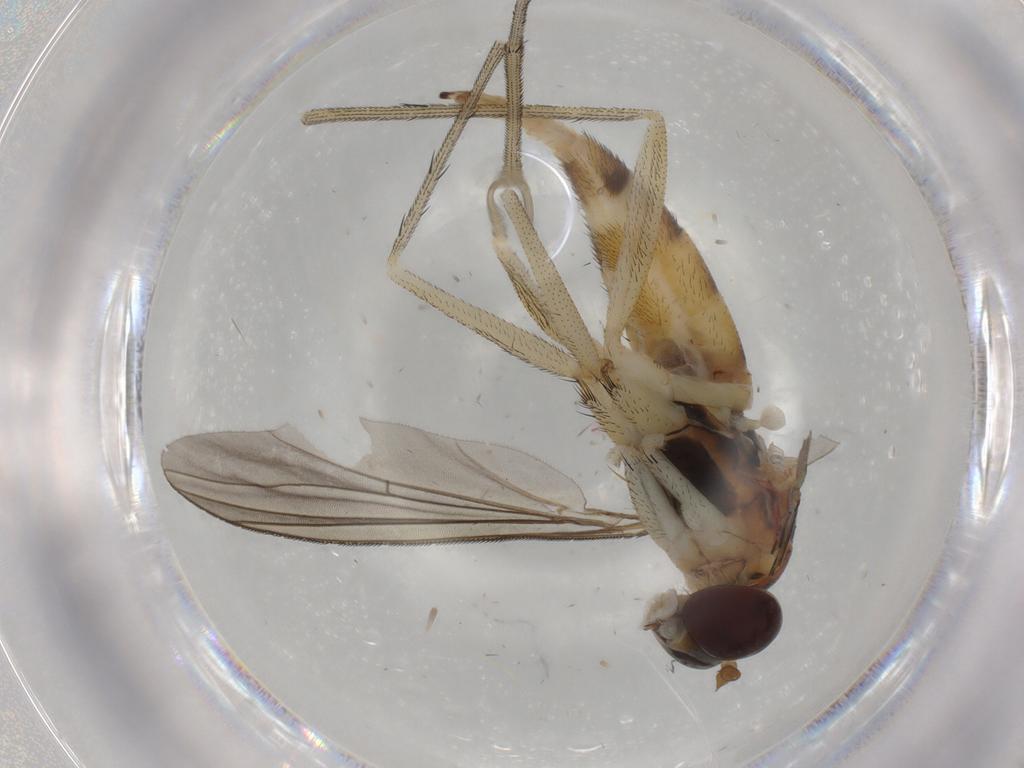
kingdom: Animalia
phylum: Arthropoda
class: Insecta
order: Diptera
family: Dolichopodidae
